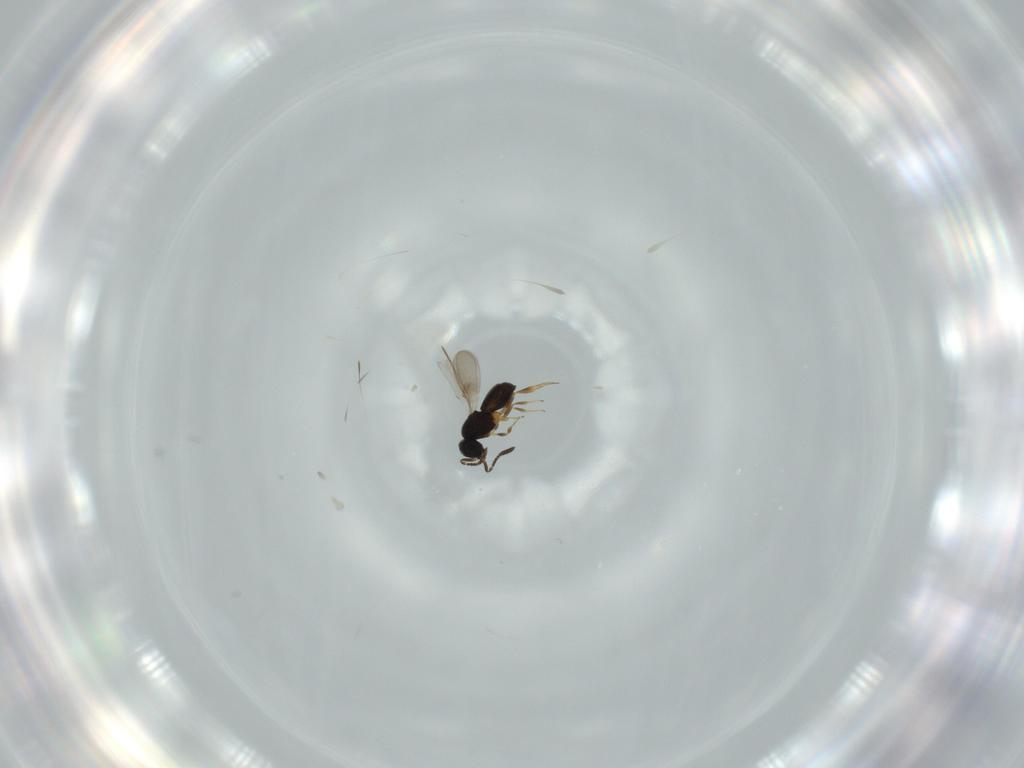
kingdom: Animalia
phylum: Arthropoda
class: Insecta
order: Hymenoptera
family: Scelionidae
